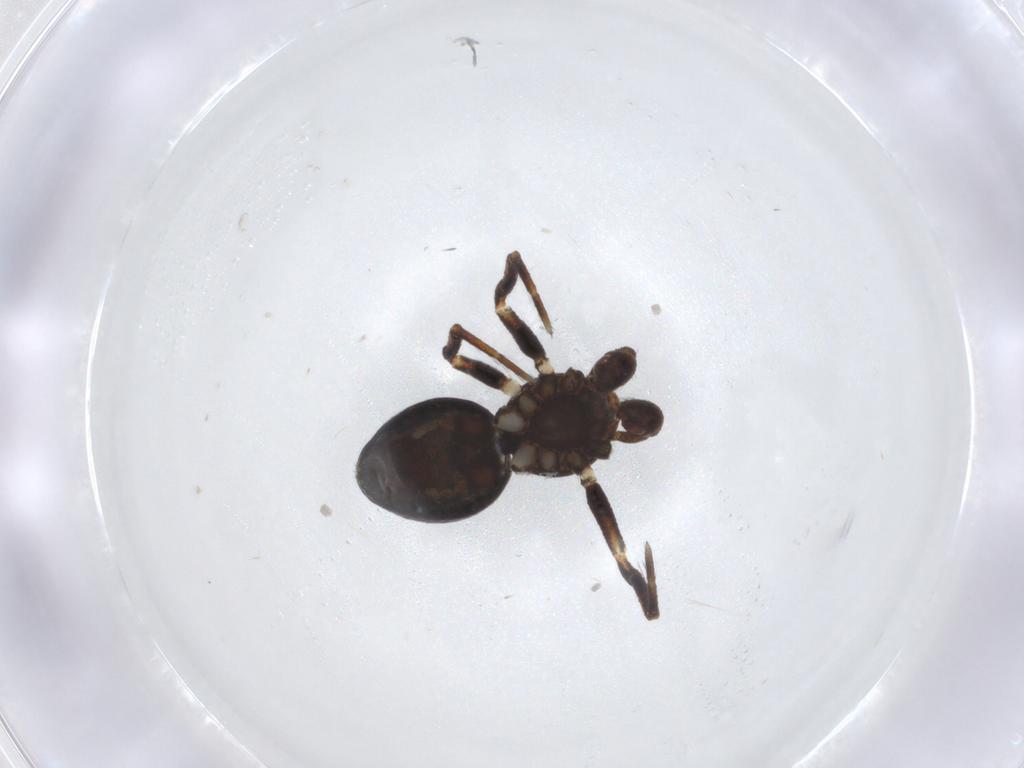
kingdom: Animalia
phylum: Arthropoda
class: Arachnida
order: Araneae
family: Theridiidae
